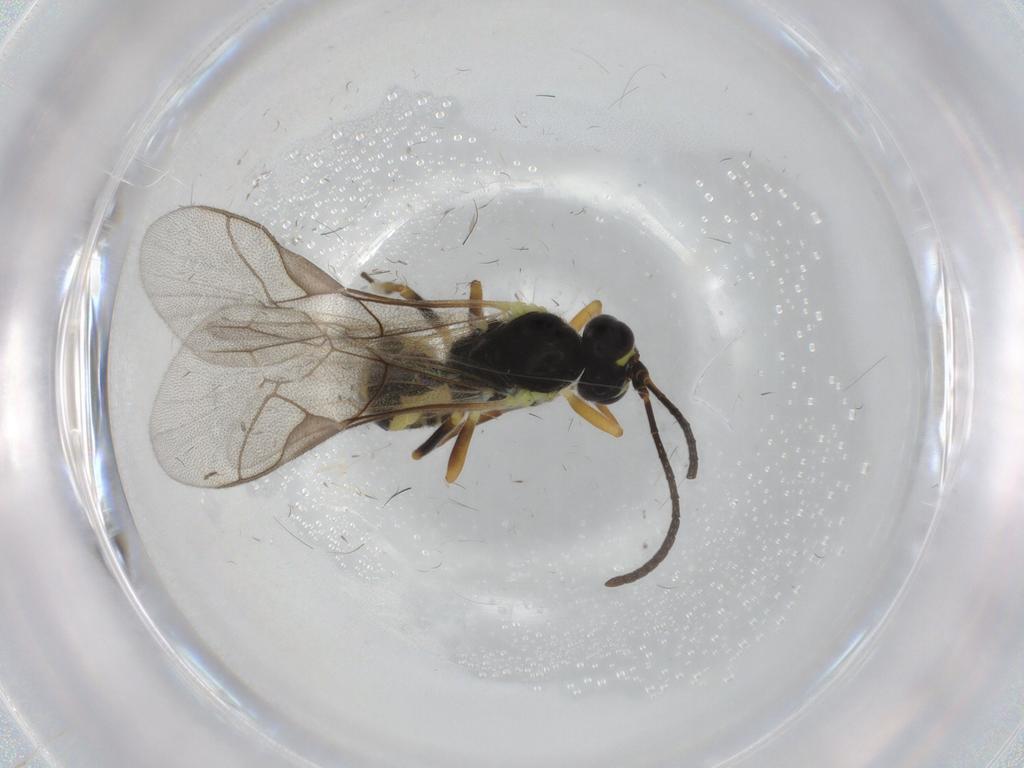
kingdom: Animalia
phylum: Arthropoda
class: Insecta
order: Hymenoptera
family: Ichneumonidae
